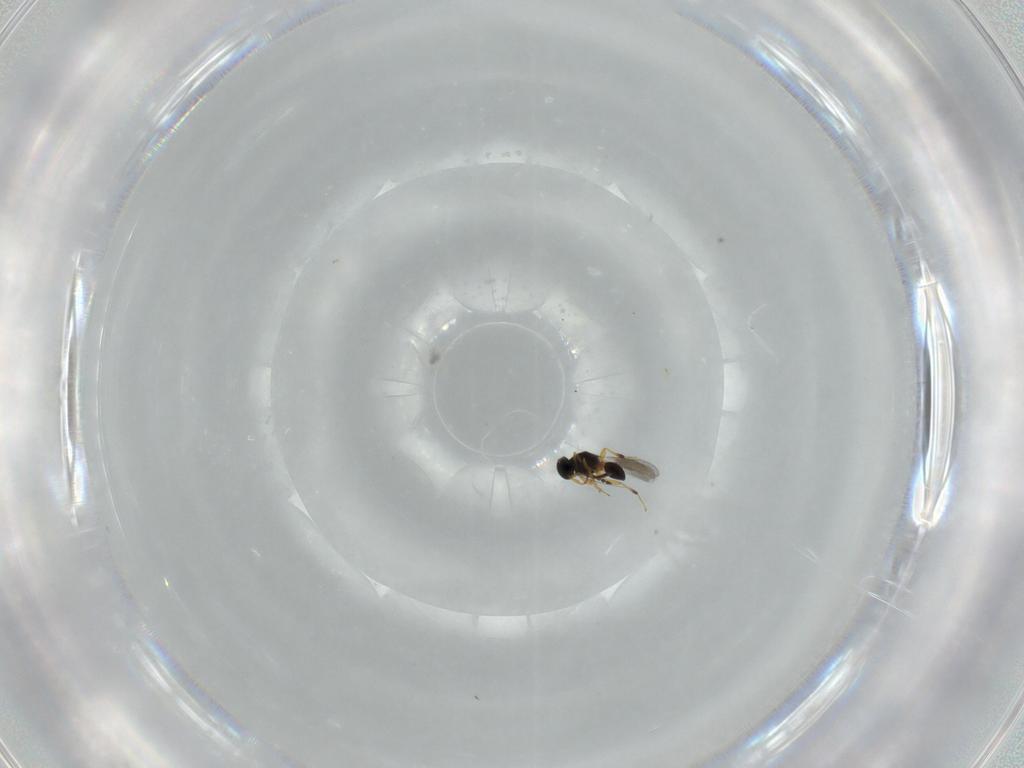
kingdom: Animalia
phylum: Arthropoda
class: Insecta
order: Hymenoptera
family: Platygastridae
